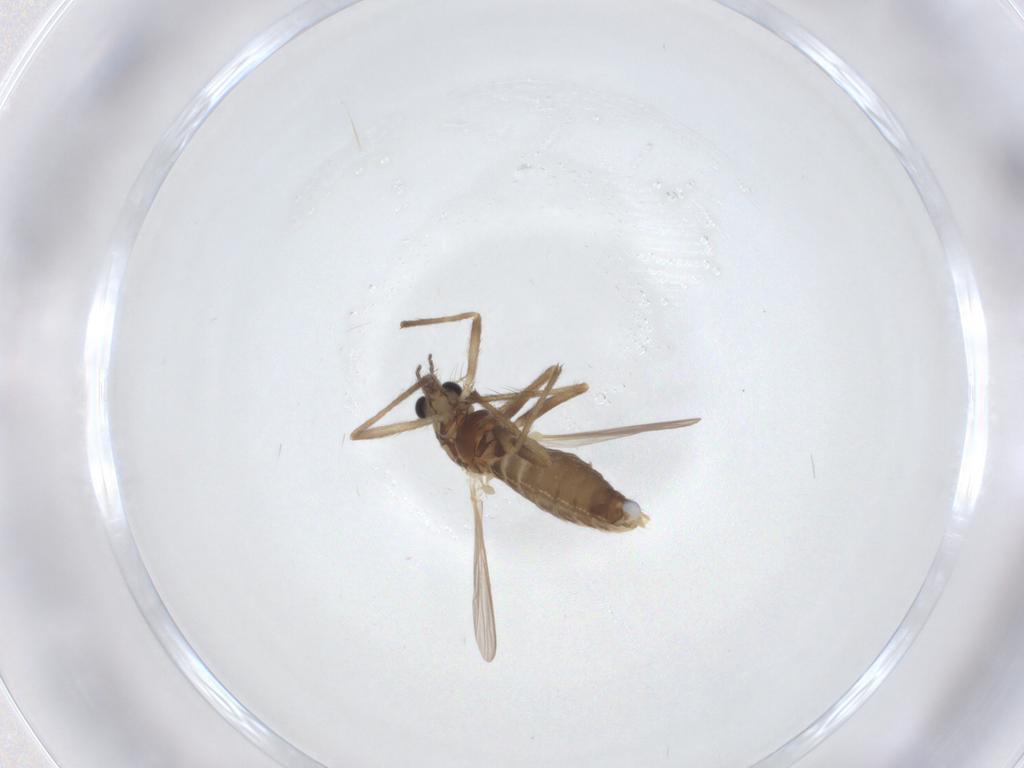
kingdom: Animalia
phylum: Arthropoda
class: Insecta
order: Diptera
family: Chironomidae
